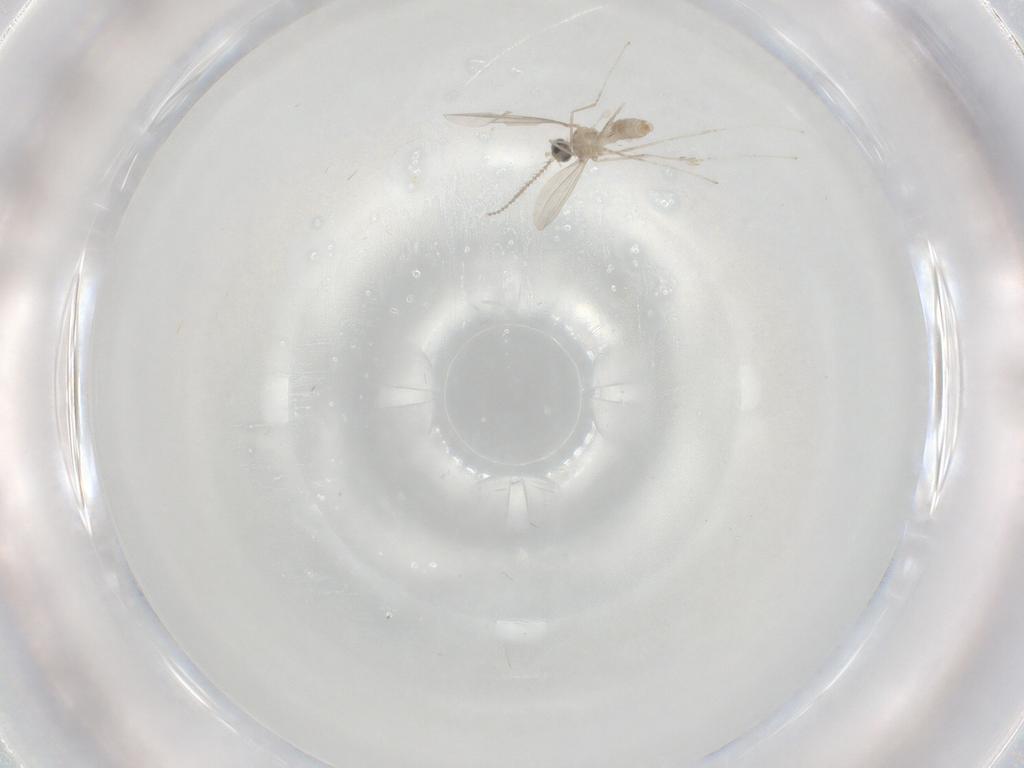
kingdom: Animalia
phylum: Arthropoda
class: Insecta
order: Diptera
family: Cecidomyiidae
